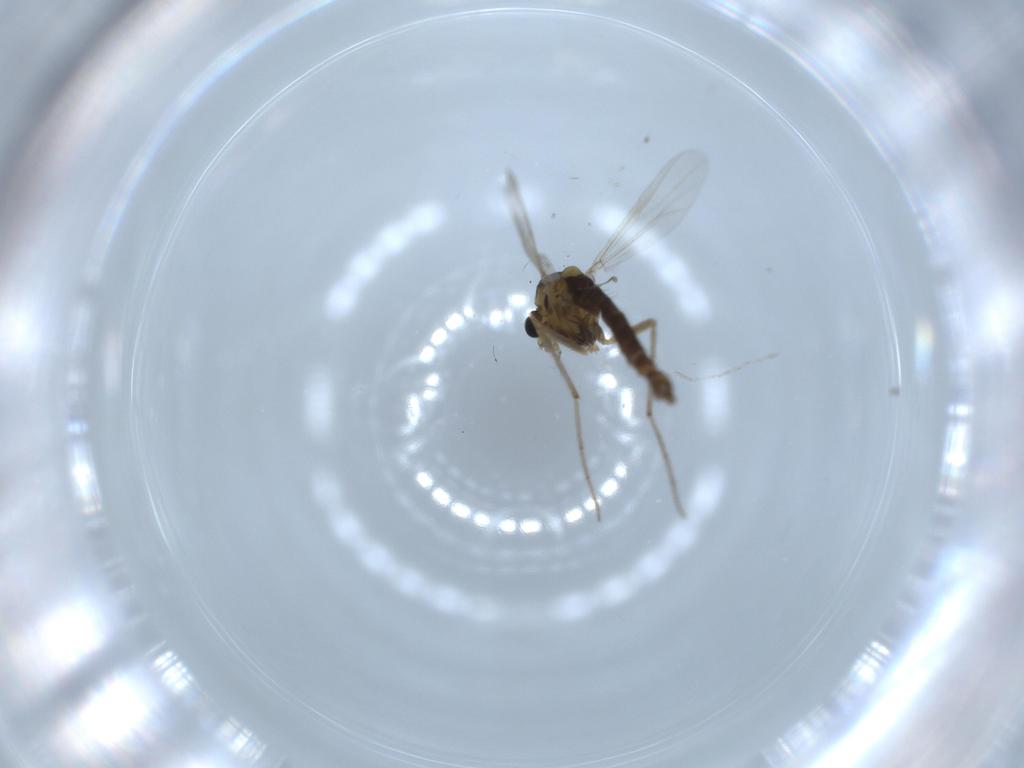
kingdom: Animalia
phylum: Arthropoda
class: Insecta
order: Diptera
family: Chironomidae
